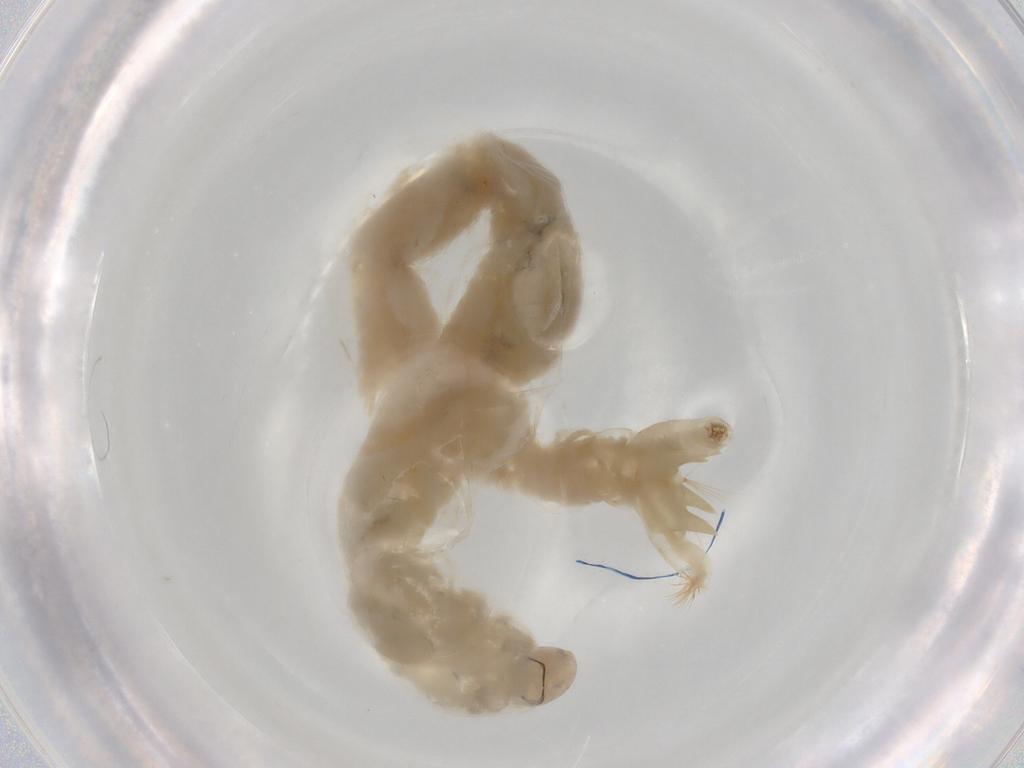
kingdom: Animalia
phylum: Arthropoda
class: Insecta
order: Diptera
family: Chironomidae
